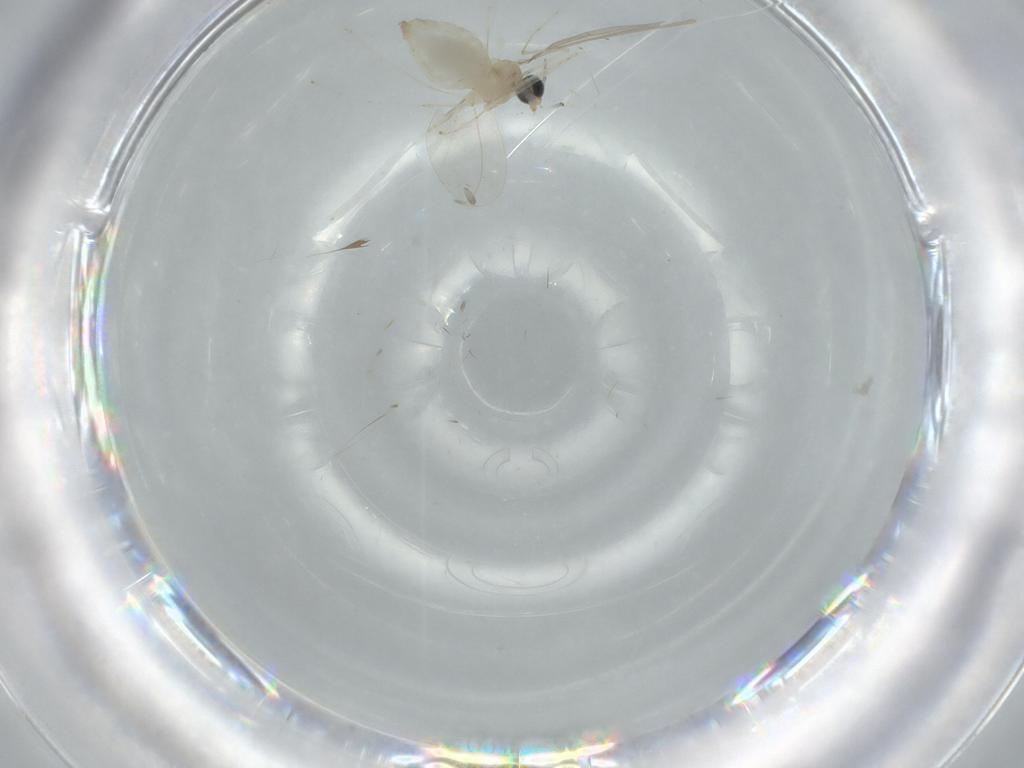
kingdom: Animalia
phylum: Arthropoda
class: Insecta
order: Diptera
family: Cecidomyiidae
